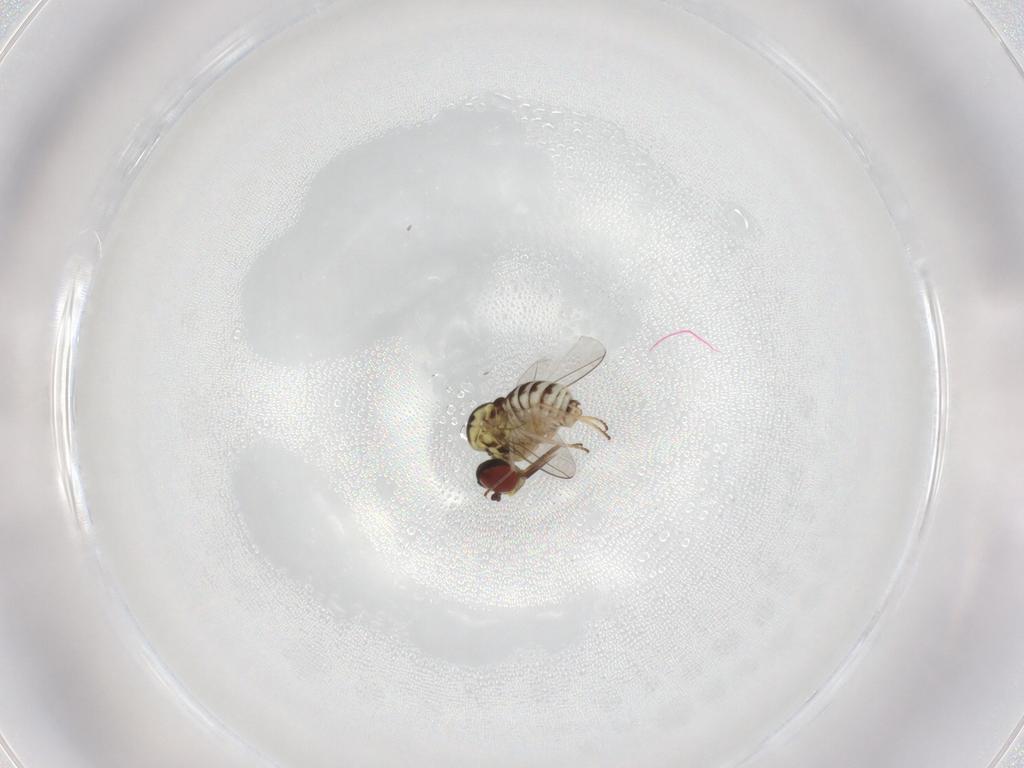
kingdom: Animalia
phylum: Arthropoda
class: Insecta
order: Diptera
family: Bombyliidae
